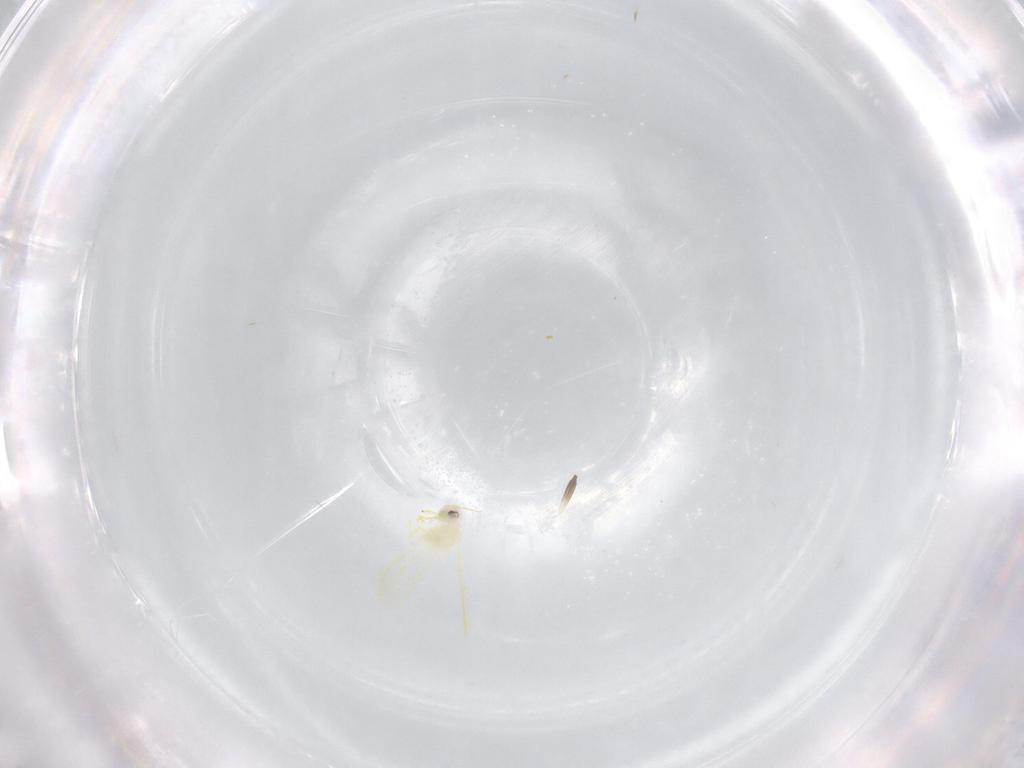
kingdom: Animalia
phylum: Arthropoda
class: Insecta
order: Hemiptera
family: Aleyrodidae
